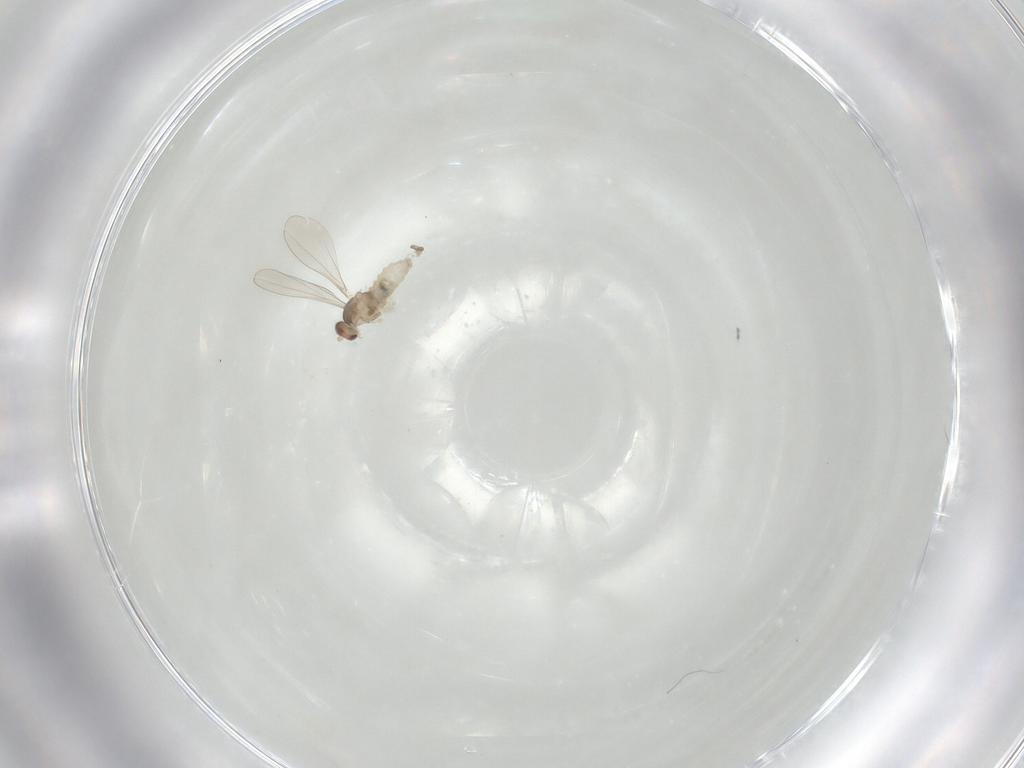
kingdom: Animalia
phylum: Arthropoda
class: Insecta
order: Diptera
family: Cecidomyiidae
